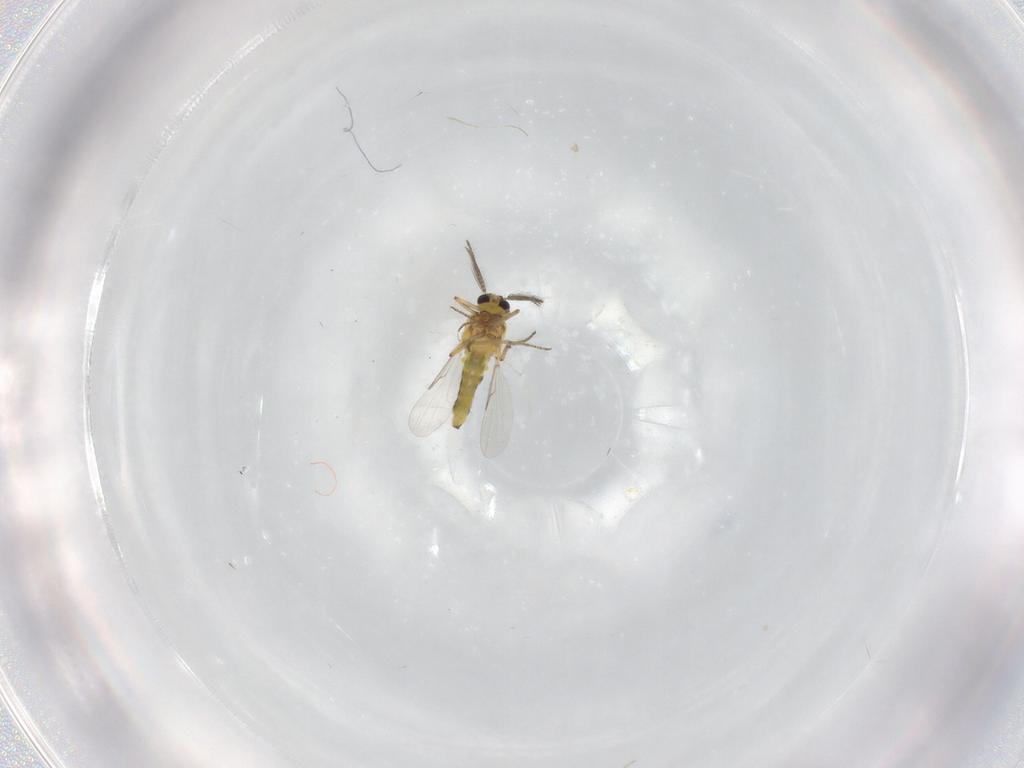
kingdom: Animalia
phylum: Arthropoda
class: Insecta
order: Diptera
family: Ceratopogonidae
